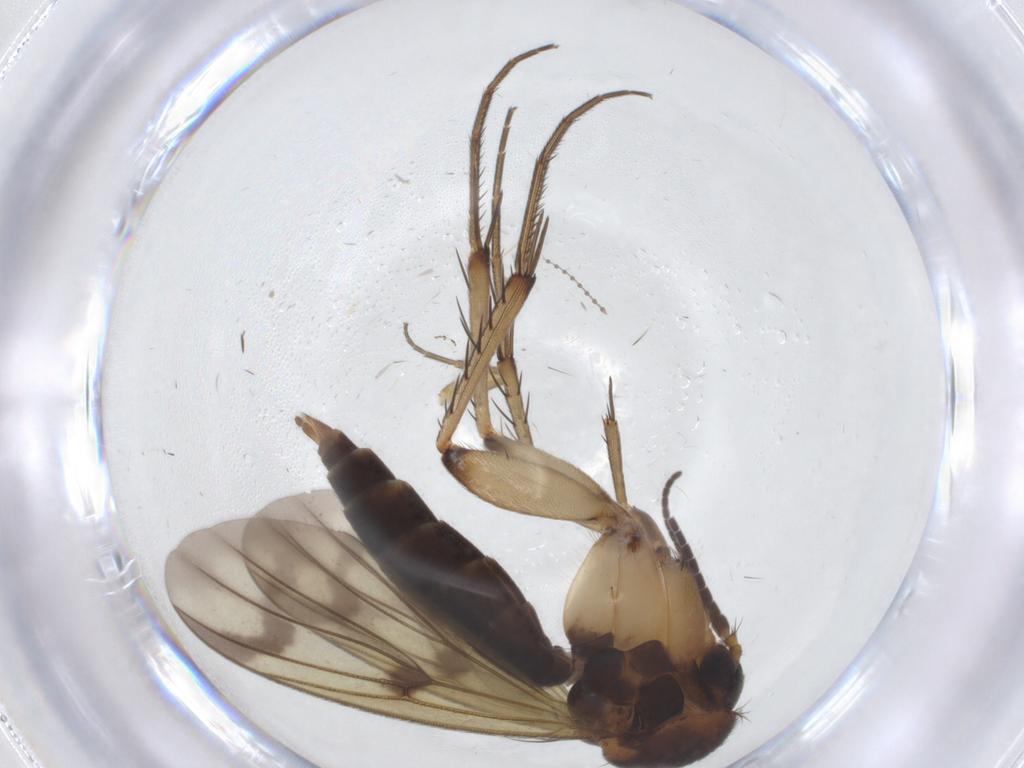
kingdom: Animalia
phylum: Arthropoda
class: Insecta
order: Diptera
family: Phoridae
